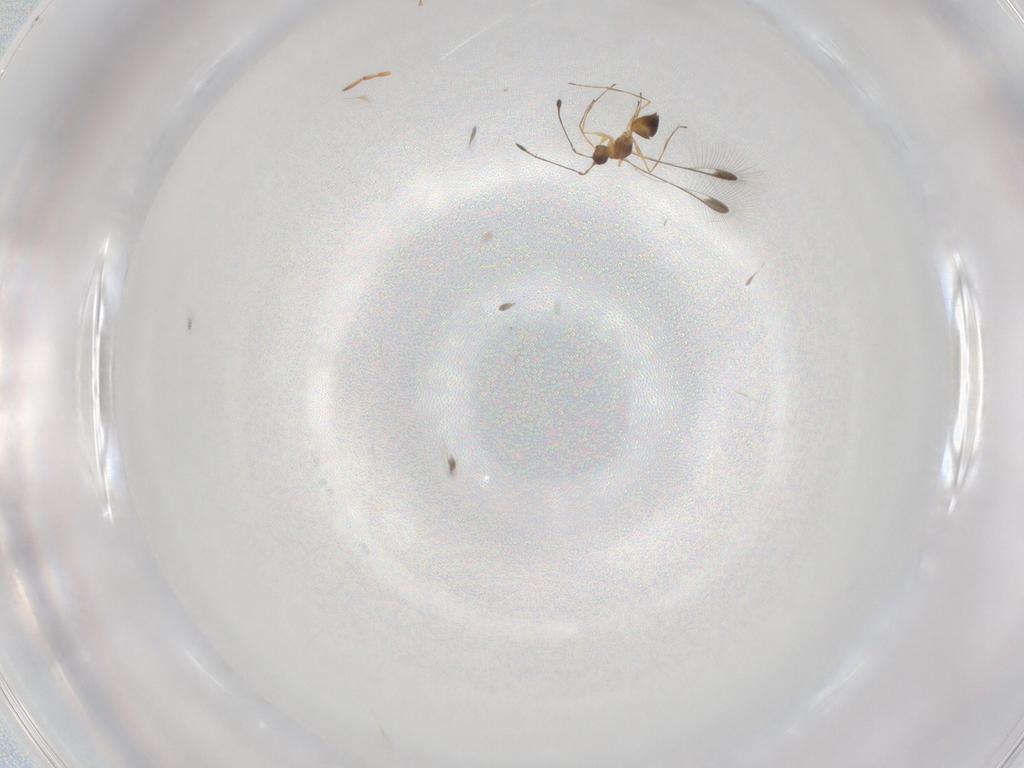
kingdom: Animalia
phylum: Arthropoda
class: Insecta
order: Hymenoptera
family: Mymaridae
